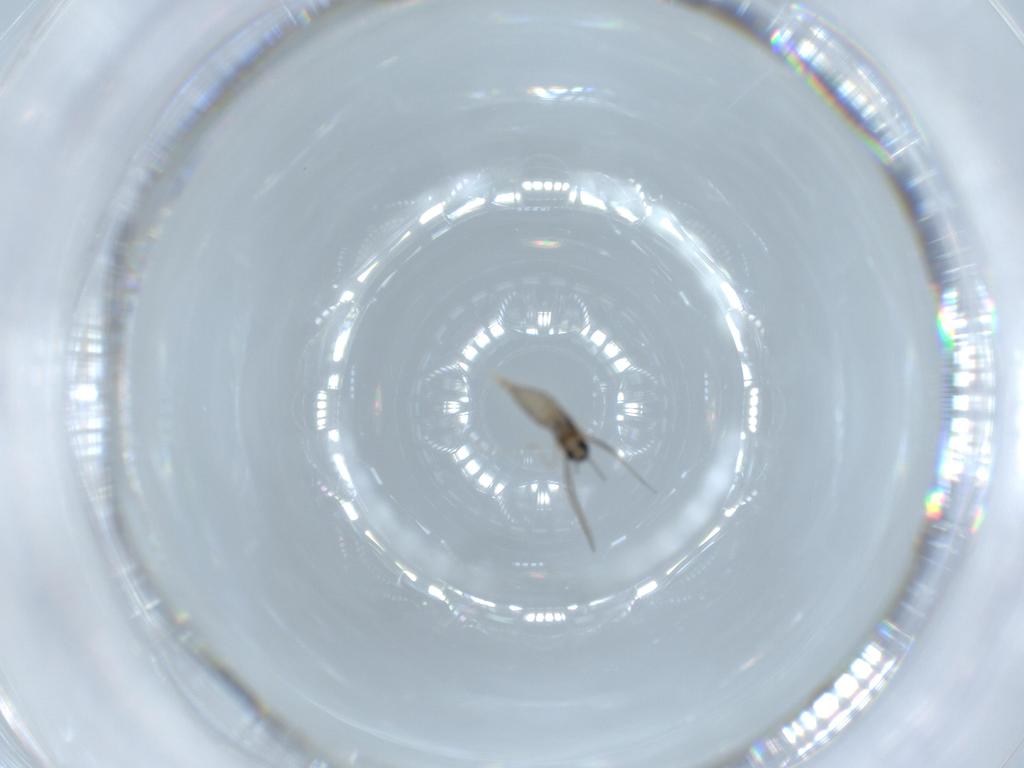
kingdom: Animalia
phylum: Arthropoda
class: Insecta
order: Diptera
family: Cecidomyiidae
